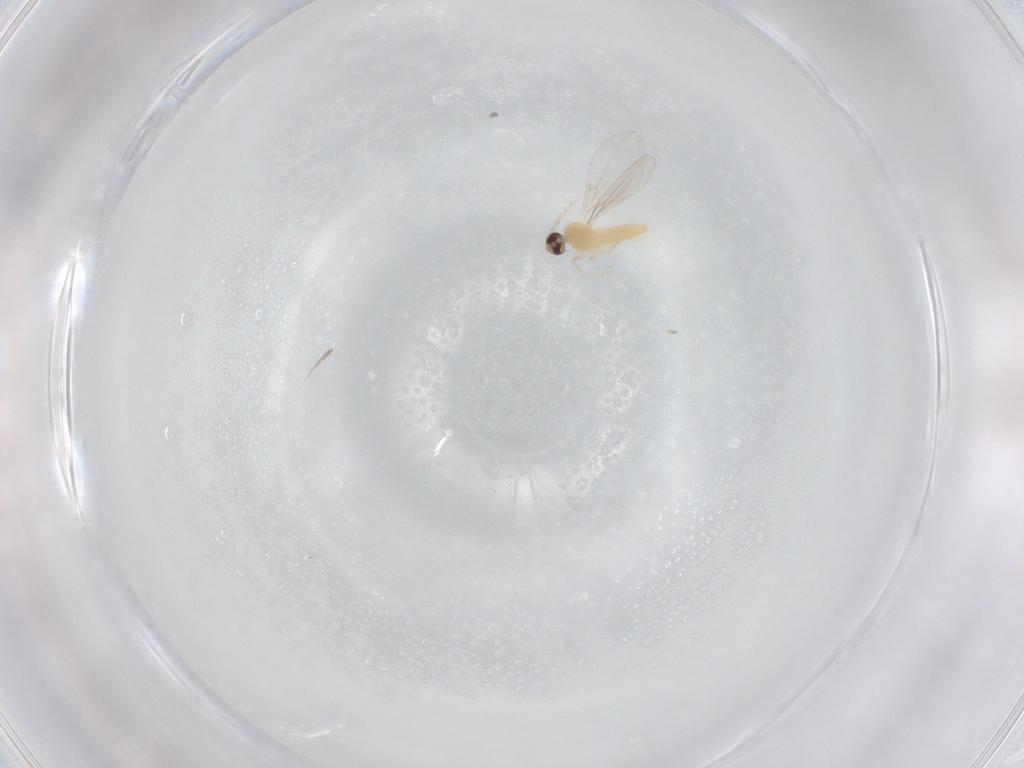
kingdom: Animalia
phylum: Arthropoda
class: Insecta
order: Diptera
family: Cecidomyiidae
